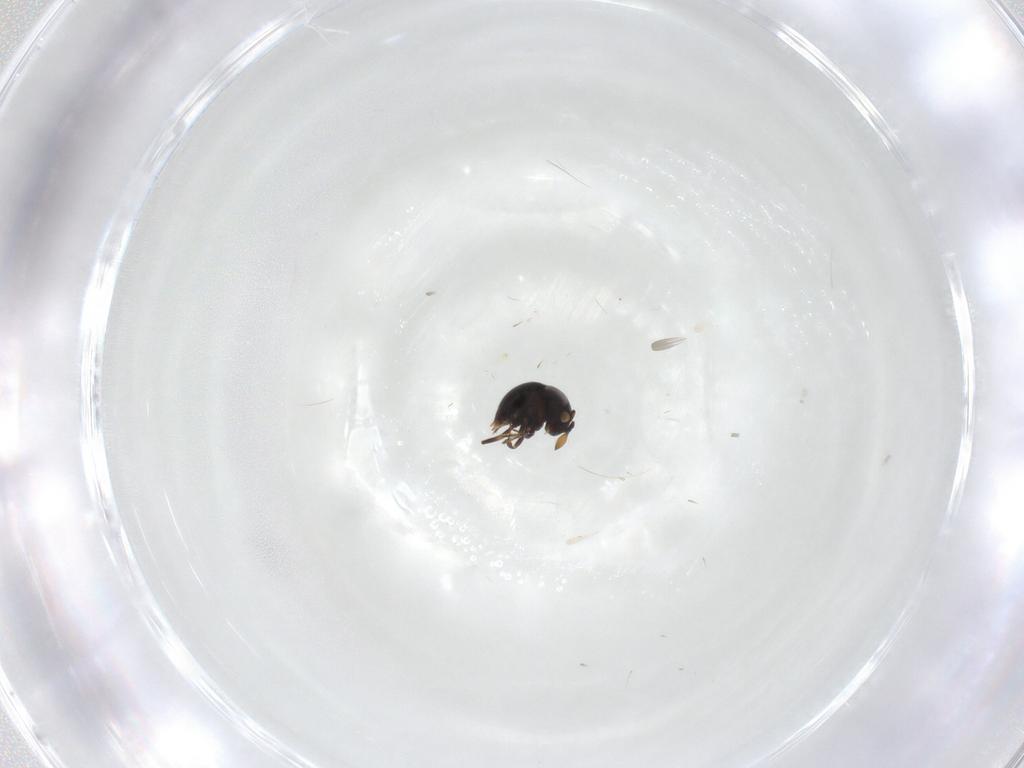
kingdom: Animalia
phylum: Arthropoda
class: Insecta
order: Hymenoptera
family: Scelionidae
